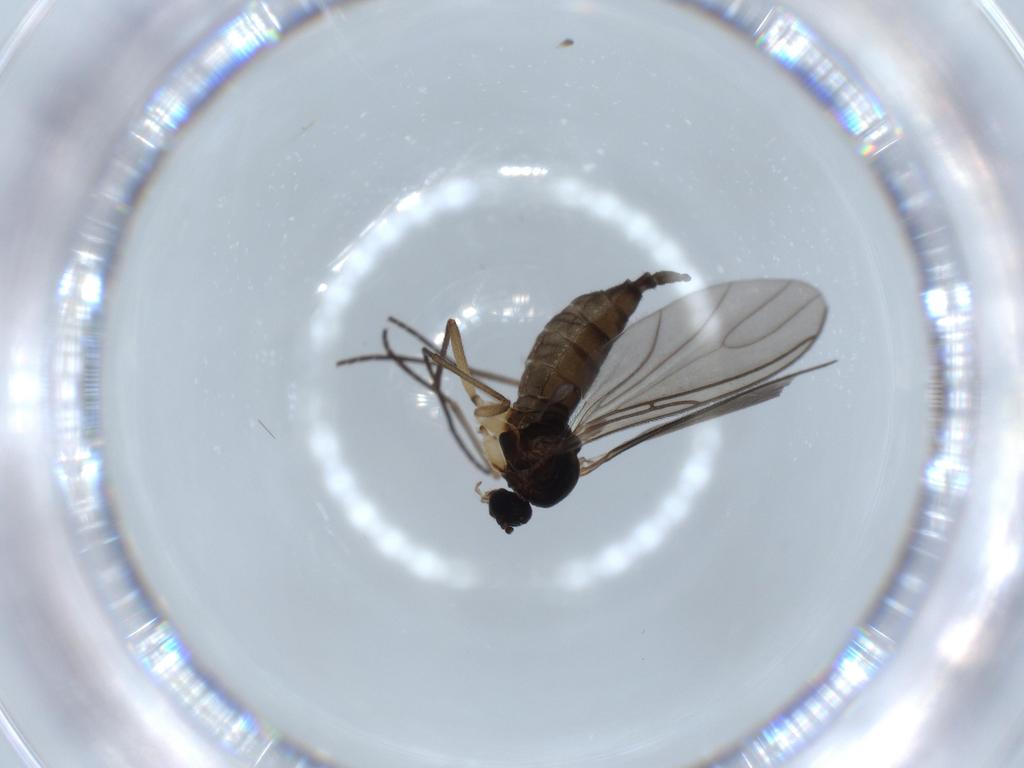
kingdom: Animalia
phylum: Arthropoda
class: Insecta
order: Diptera
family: Sciaridae
